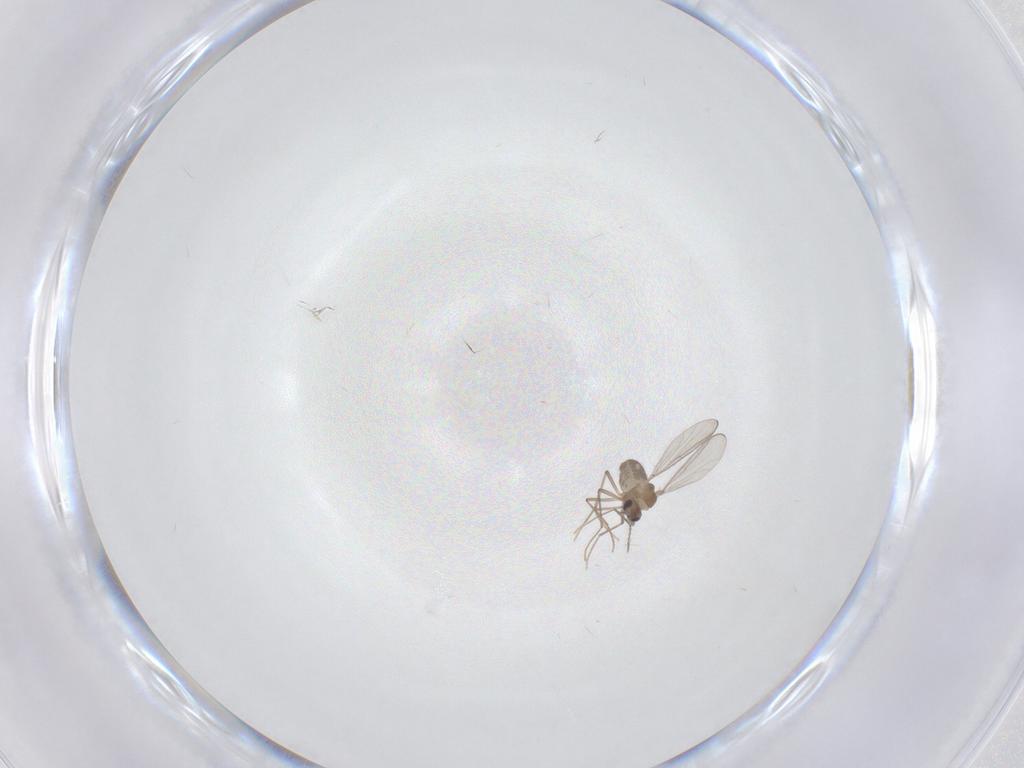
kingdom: Animalia
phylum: Arthropoda
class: Insecta
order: Diptera
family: Chironomidae
